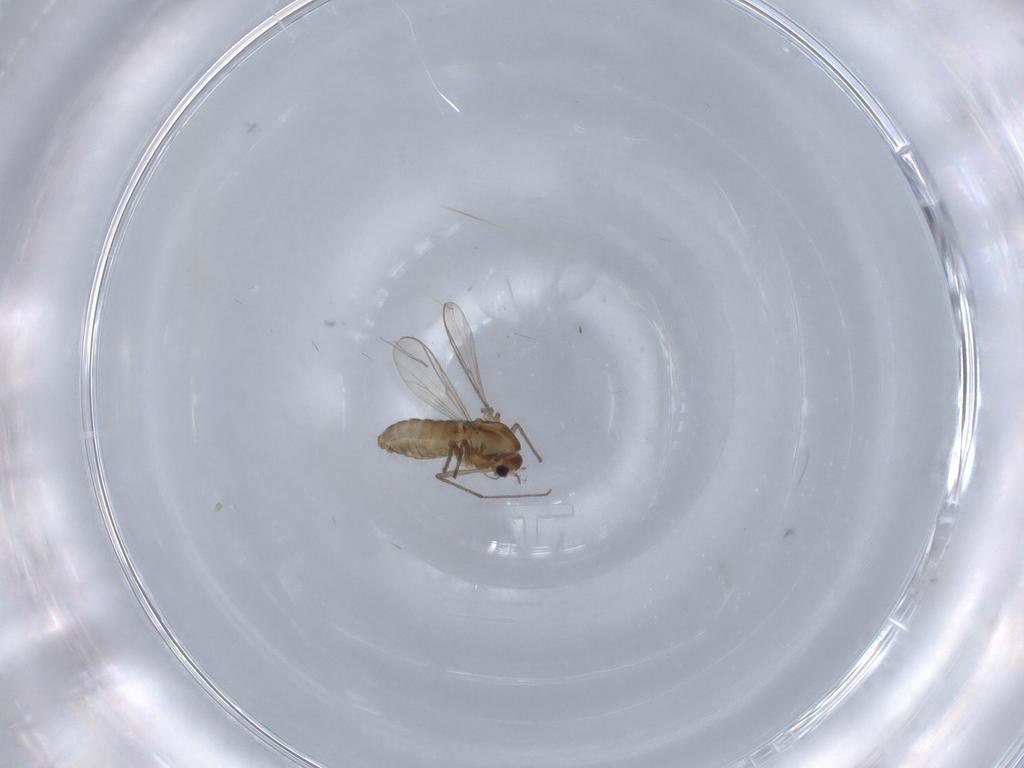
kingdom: Animalia
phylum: Arthropoda
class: Insecta
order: Diptera
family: Chironomidae
